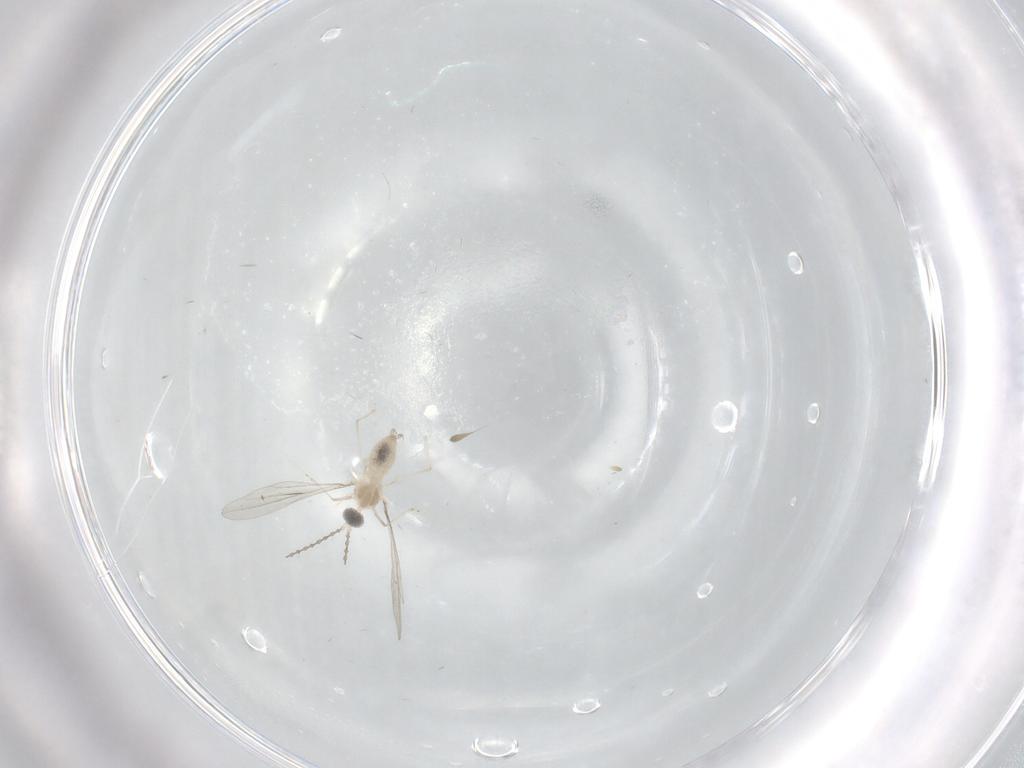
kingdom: Animalia
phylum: Arthropoda
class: Insecta
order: Diptera
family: Cecidomyiidae
